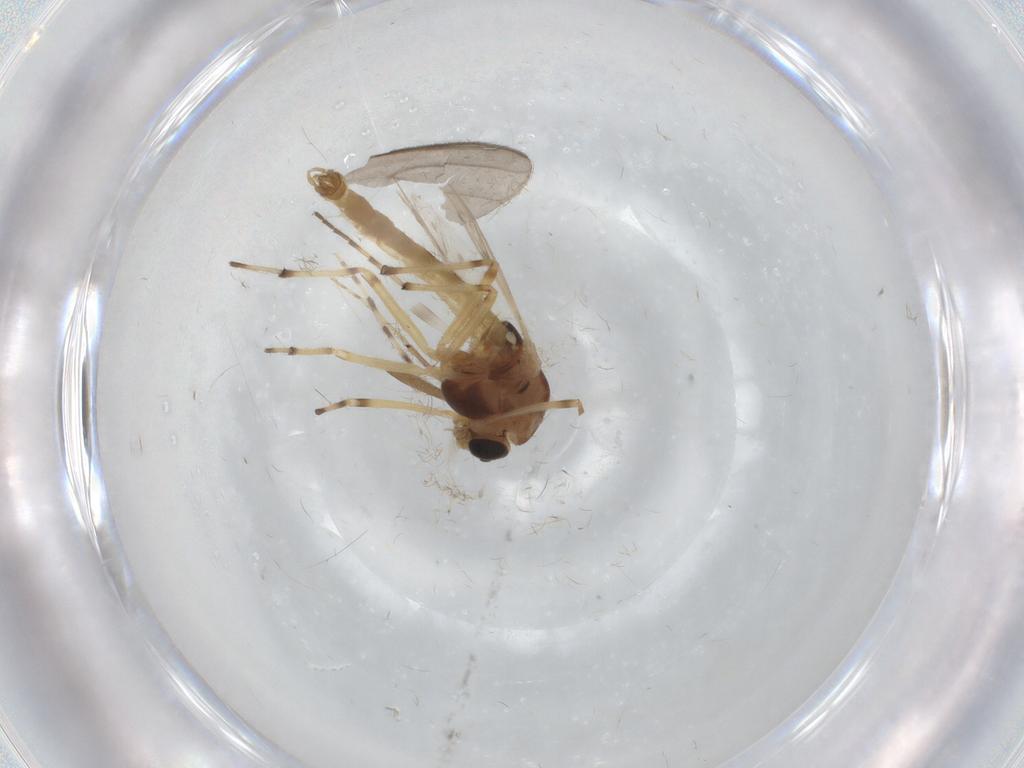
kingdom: Animalia
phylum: Arthropoda
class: Insecta
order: Diptera
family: Chironomidae
